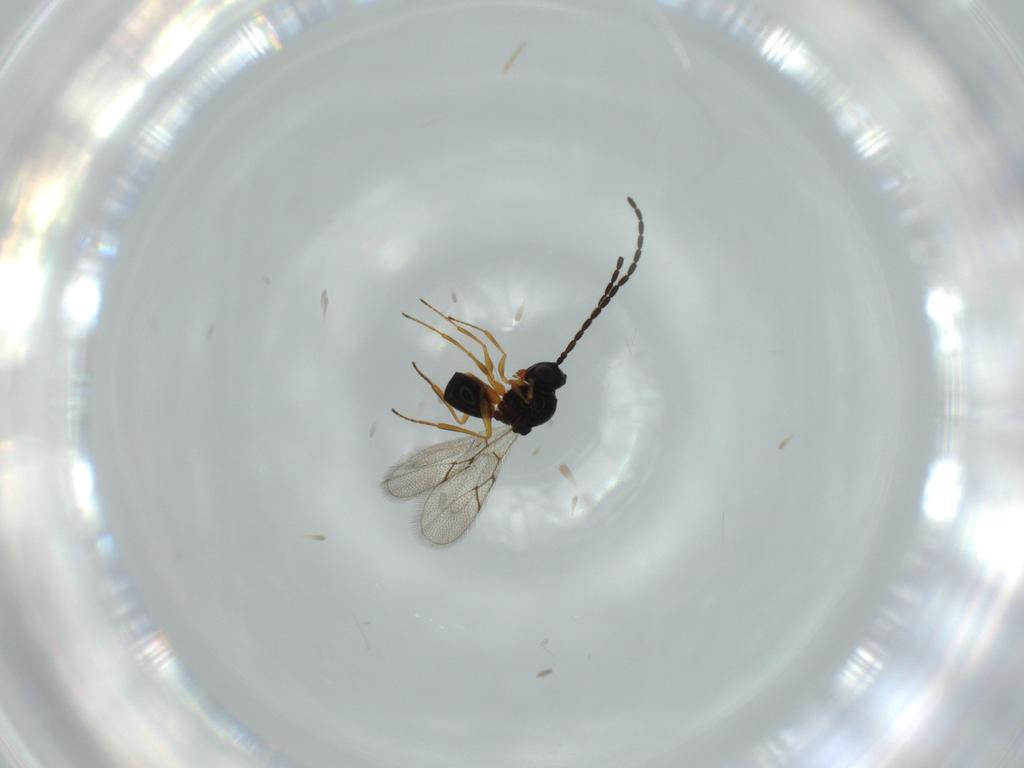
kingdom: Animalia
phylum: Arthropoda
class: Insecta
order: Hymenoptera
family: Figitidae
